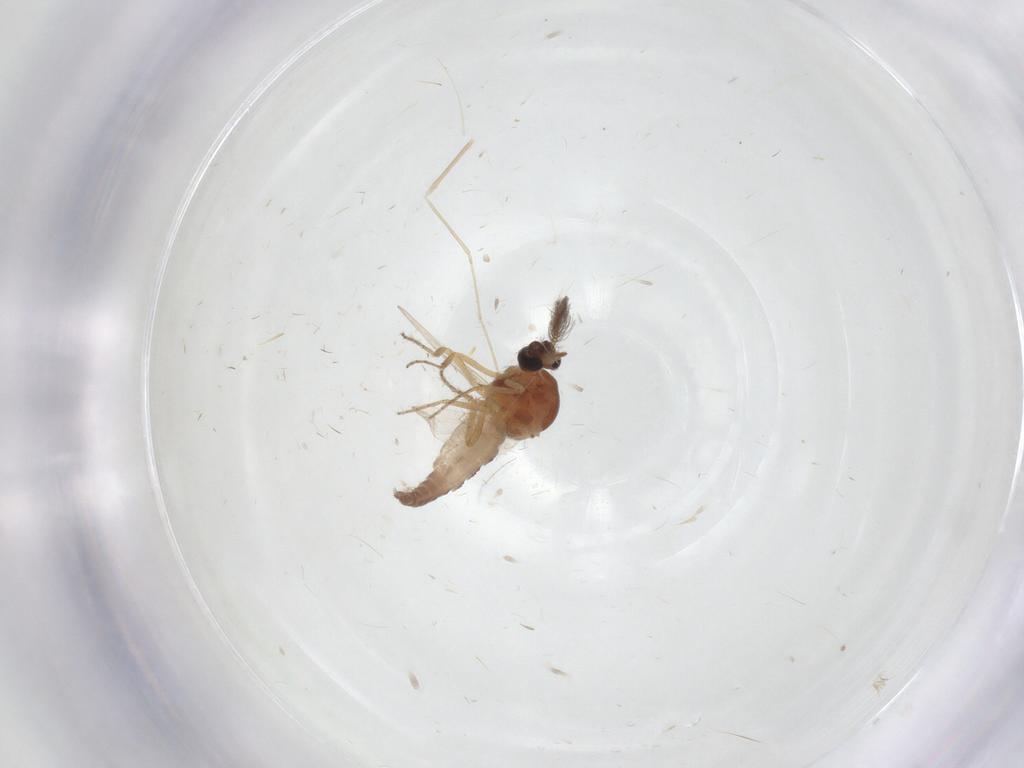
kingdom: Animalia
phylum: Arthropoda
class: Insecta
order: Diptera
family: Ceratopogonidae
